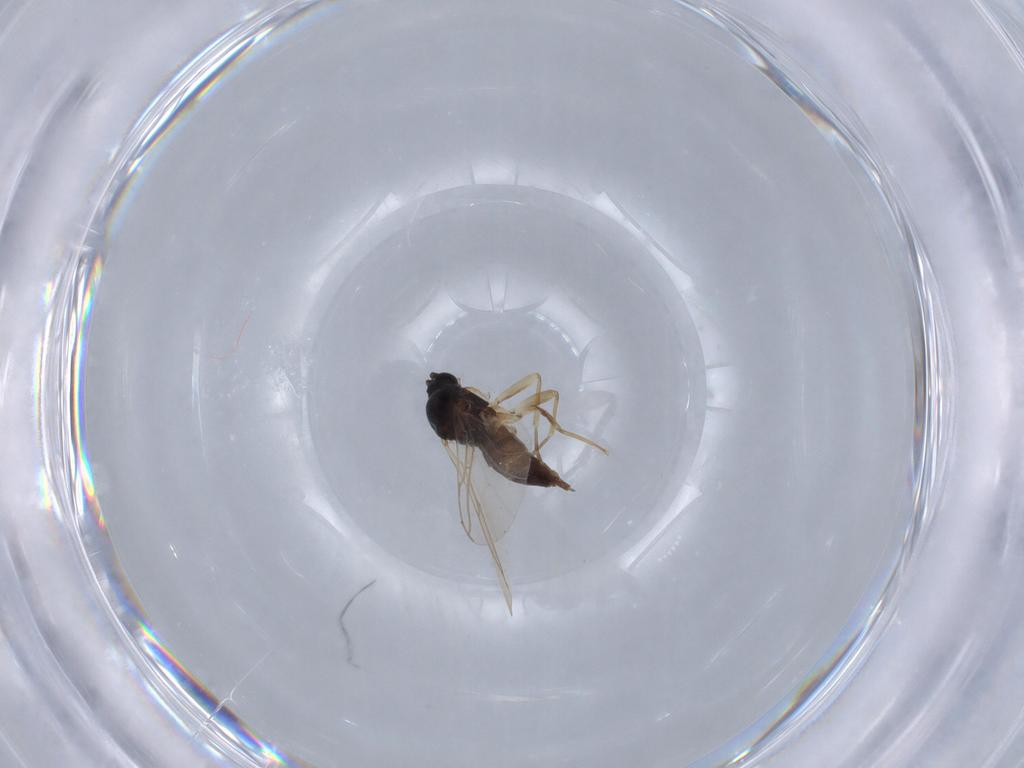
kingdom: Animalia
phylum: Arthropoda
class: Insecta
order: Diptera
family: Sciaridae
